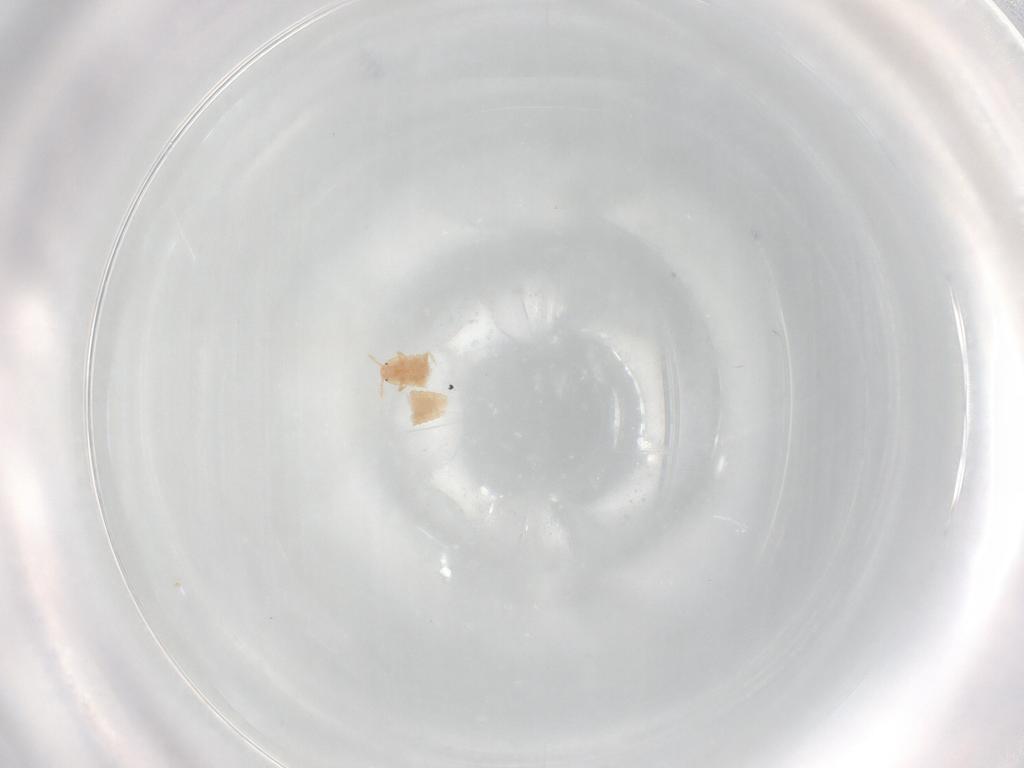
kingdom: Animalia
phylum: Arthropoda
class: Insecta
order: Hemiptera
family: Coccoidea_incertae_sedis
